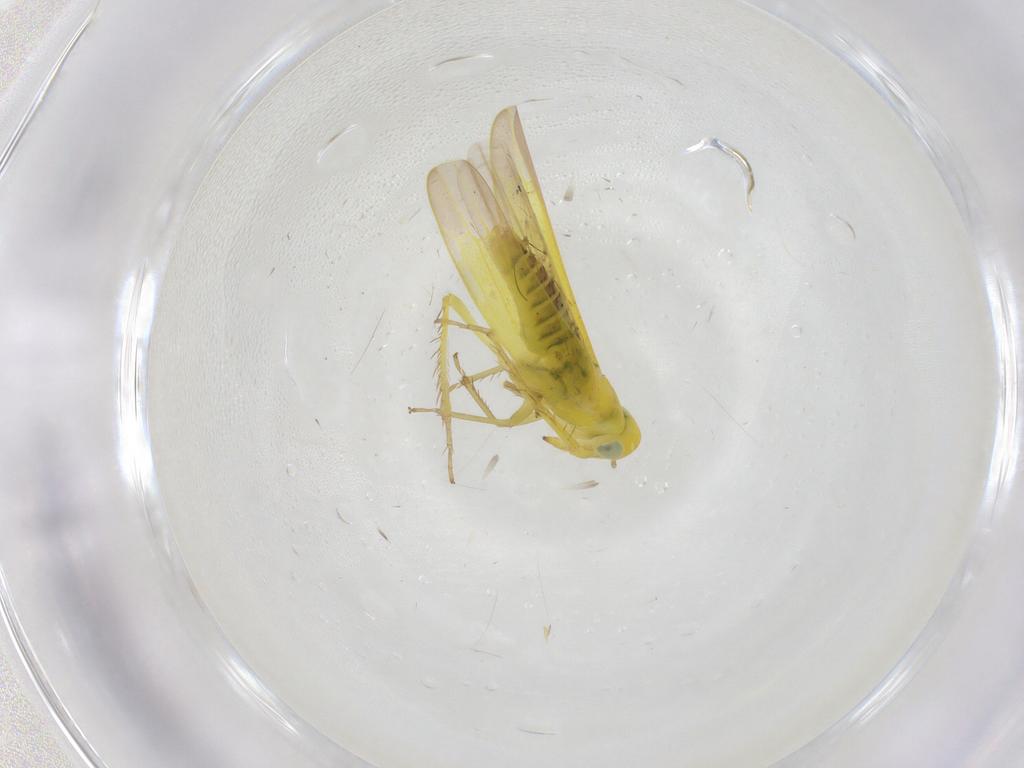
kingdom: Animalia
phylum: Arthropoda
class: Insecta
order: Hemiptera
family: Cicadellidae
